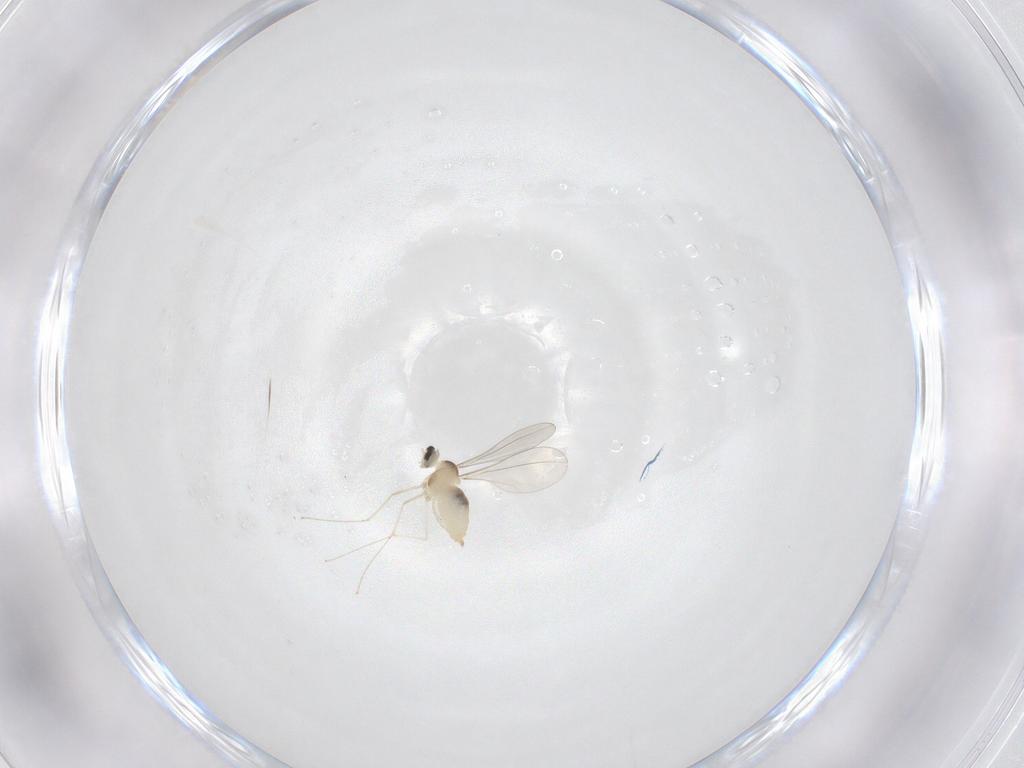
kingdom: Animalia
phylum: Arthropoda
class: Insecta
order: Diptera
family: Cecidomyiidae
